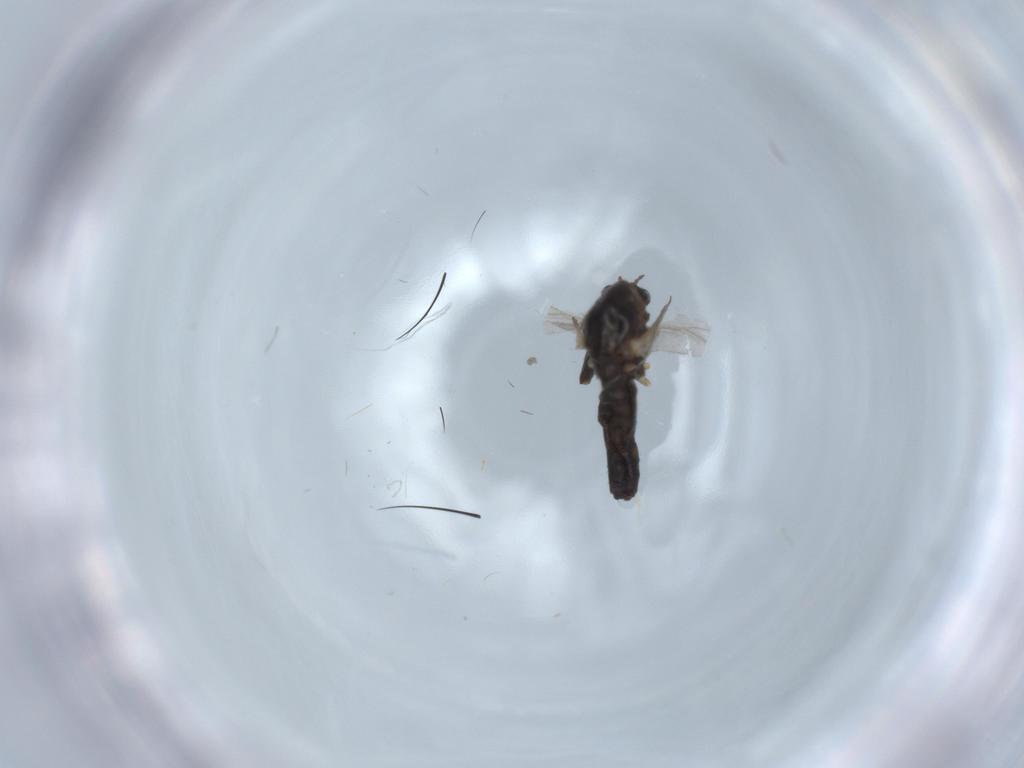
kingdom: Animalia
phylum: Arthropoda
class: Insecta
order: Diptera
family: Chironomidae
